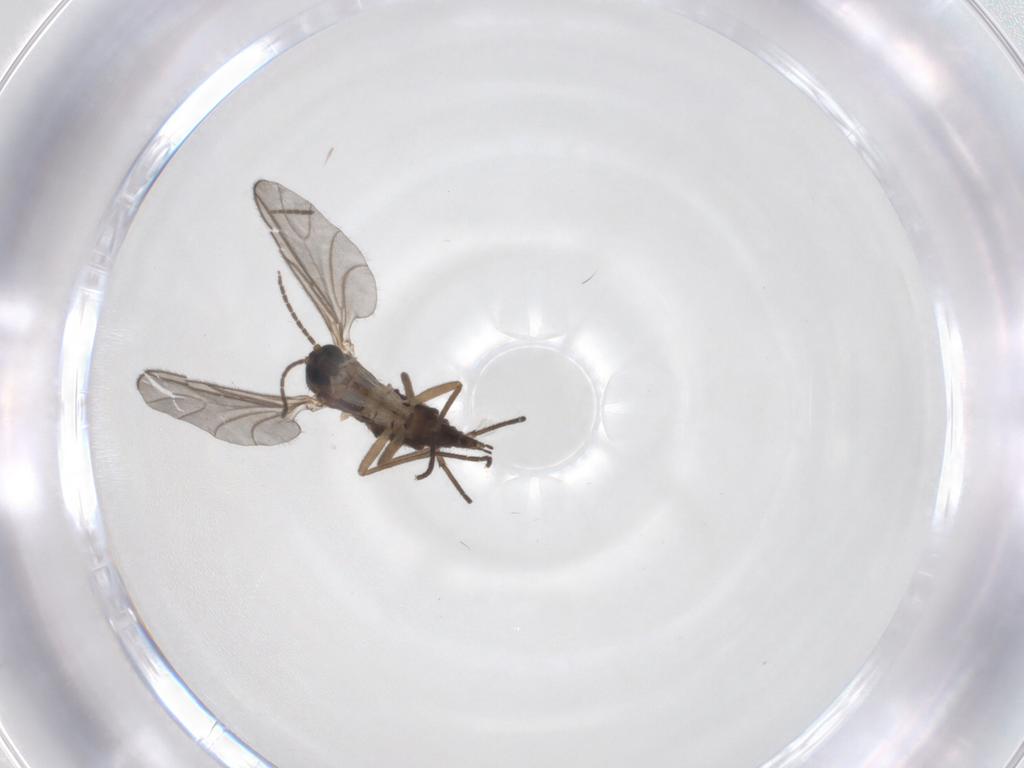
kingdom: Animalia
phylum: Arthropoda
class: Insecta
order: Diptera
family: Sciaridae
